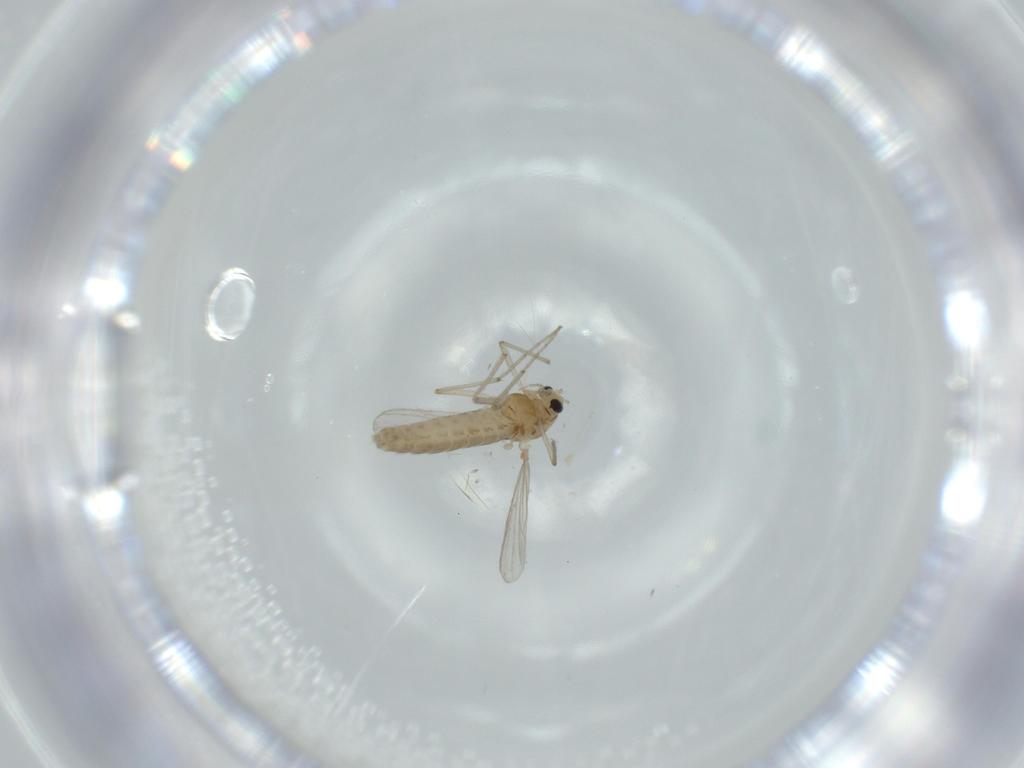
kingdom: Animalia
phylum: Arthropoda
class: Insecta
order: Diptera
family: Chironomidae
